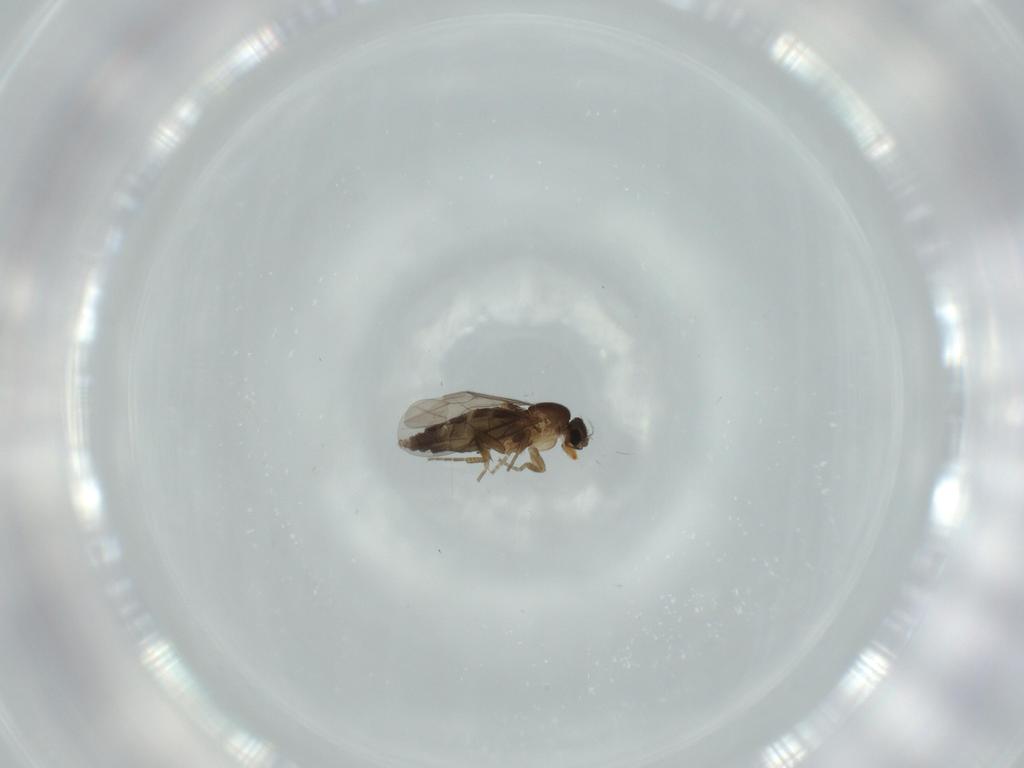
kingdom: Animalia
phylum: Arthropoda
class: Insecta
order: Diptera
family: Phoridae
